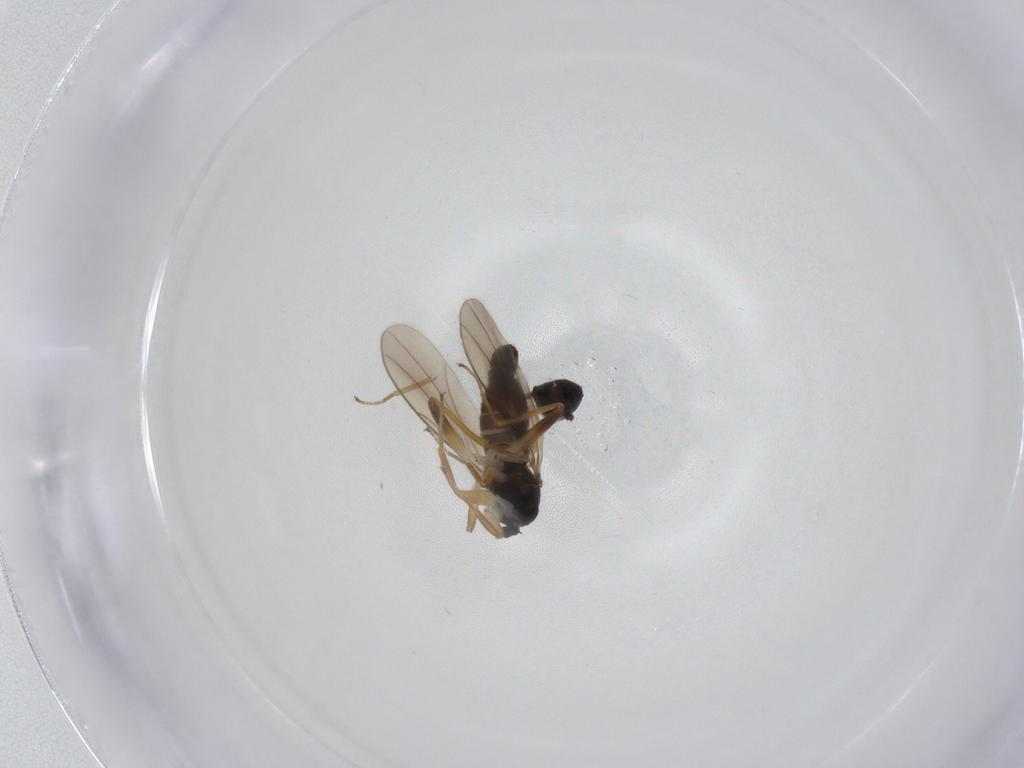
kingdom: Animalia
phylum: Arthropoda
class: Insecta
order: Diptera
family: Hybotidae
